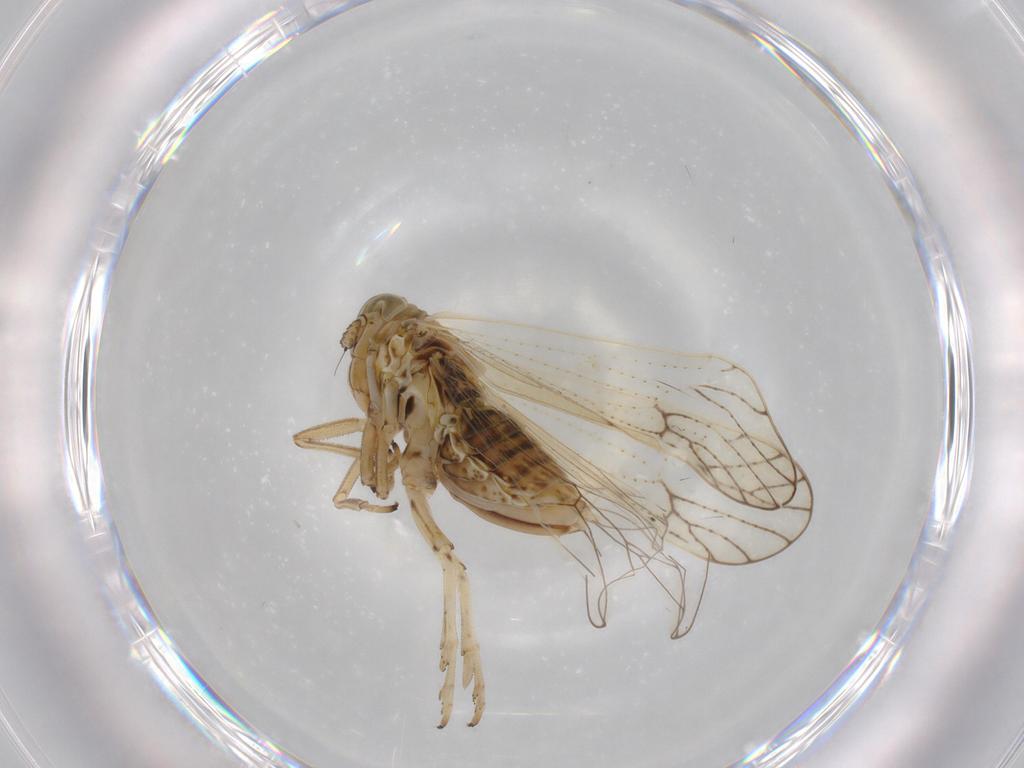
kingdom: Animalia
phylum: Arthropoda
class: Insecta
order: Hemiptera
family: Delphacidae
